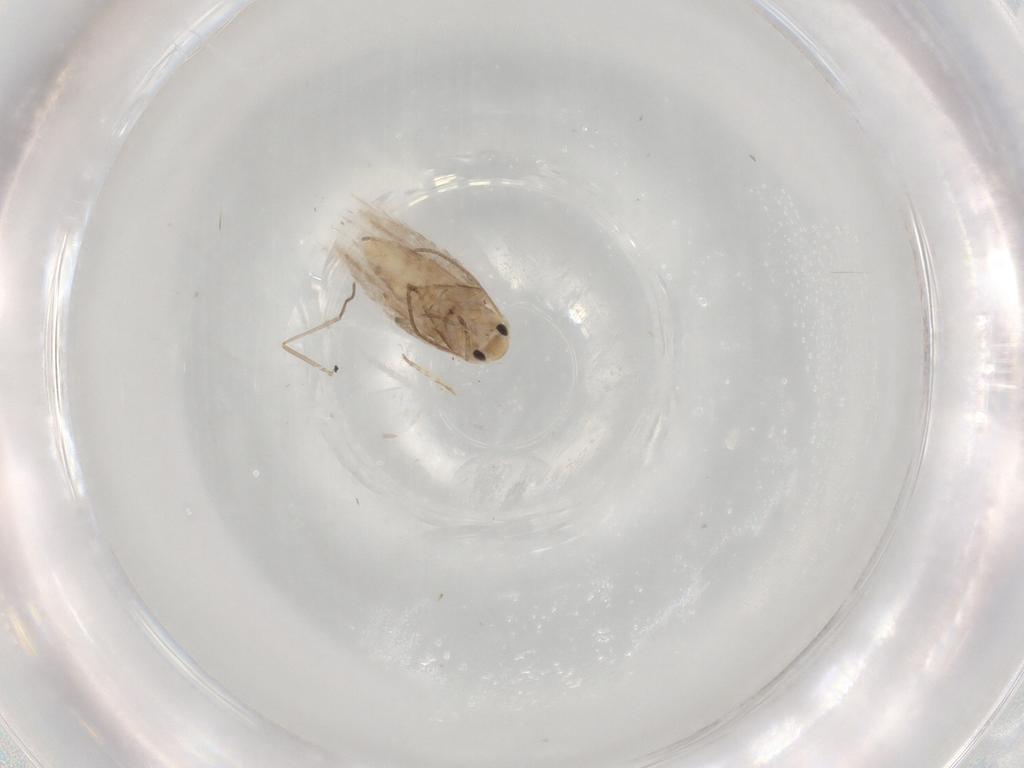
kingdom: Animalia
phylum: Arthropoda
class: Insecta
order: Lepidoptera
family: Depressariidae
